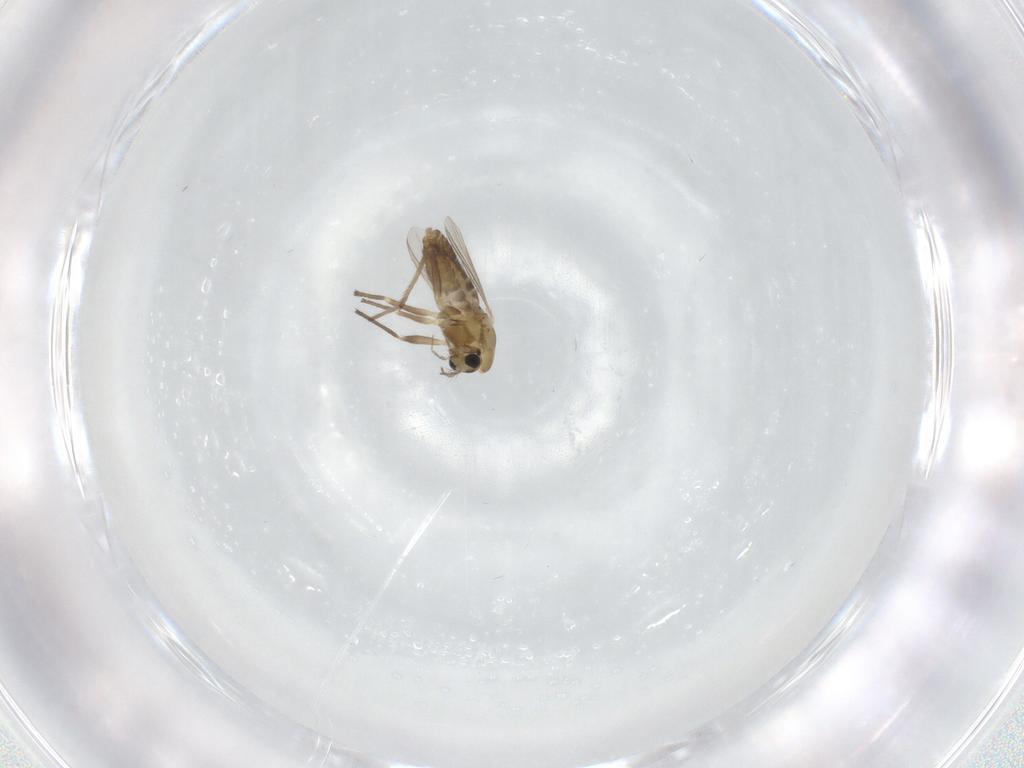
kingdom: Animalia
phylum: Arthropoda
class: Insecta
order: Diptera
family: Chironomidae
